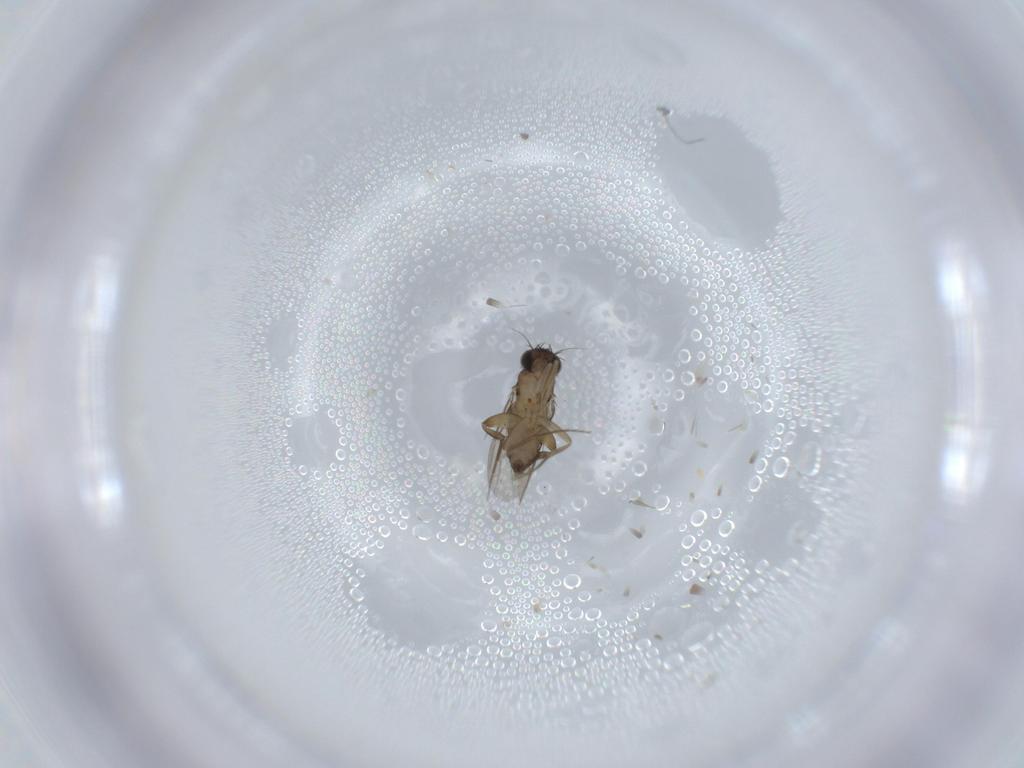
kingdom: Animalia
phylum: Arthropoda
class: Insecta
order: Diptera
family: Phoridae
